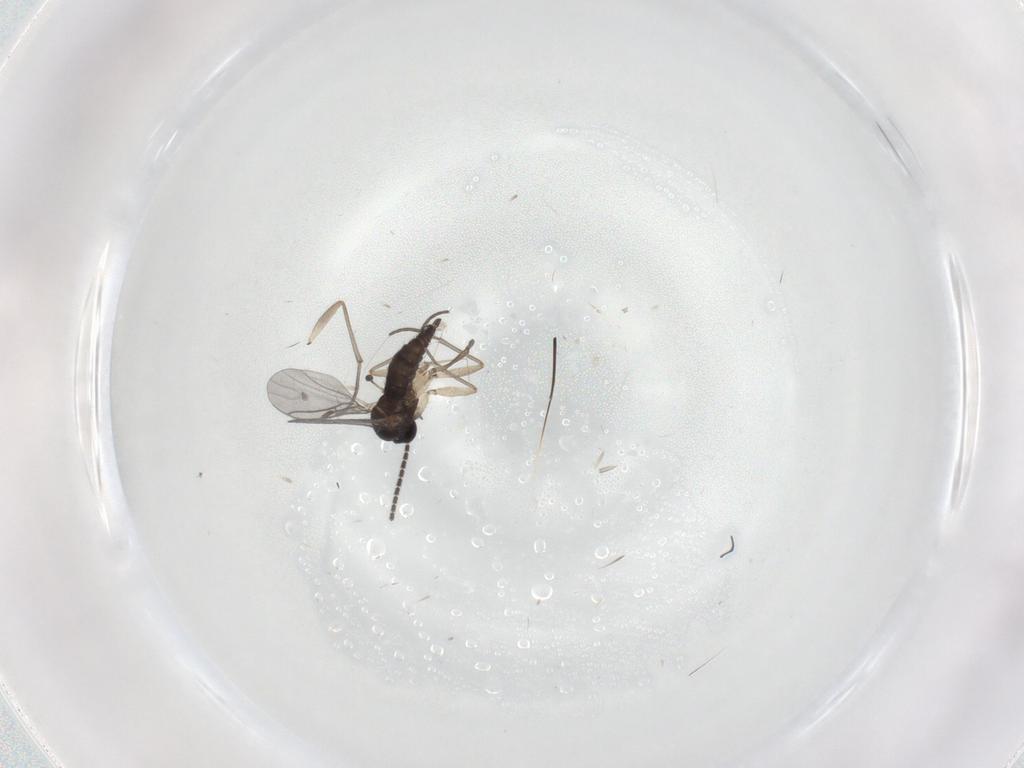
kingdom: Animalia
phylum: Arthropoda
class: Insecta
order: Diptera
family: Sciaridae
